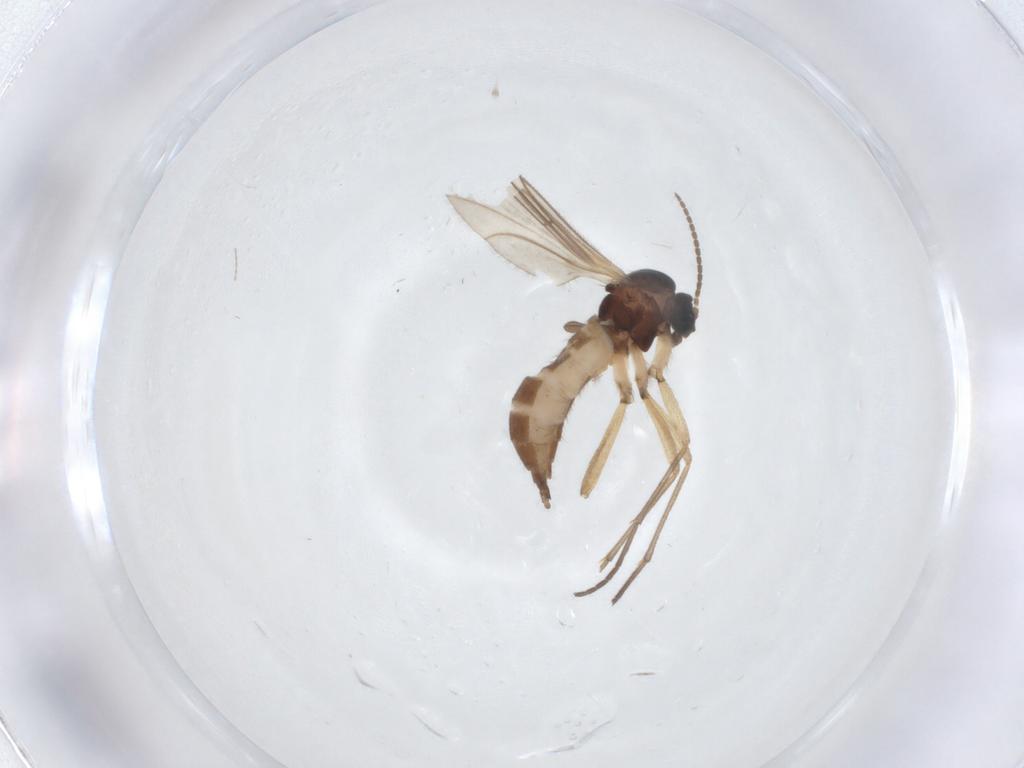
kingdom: Animalia
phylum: Arthropoda
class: Insecta
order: Diptera
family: Sciaridae
